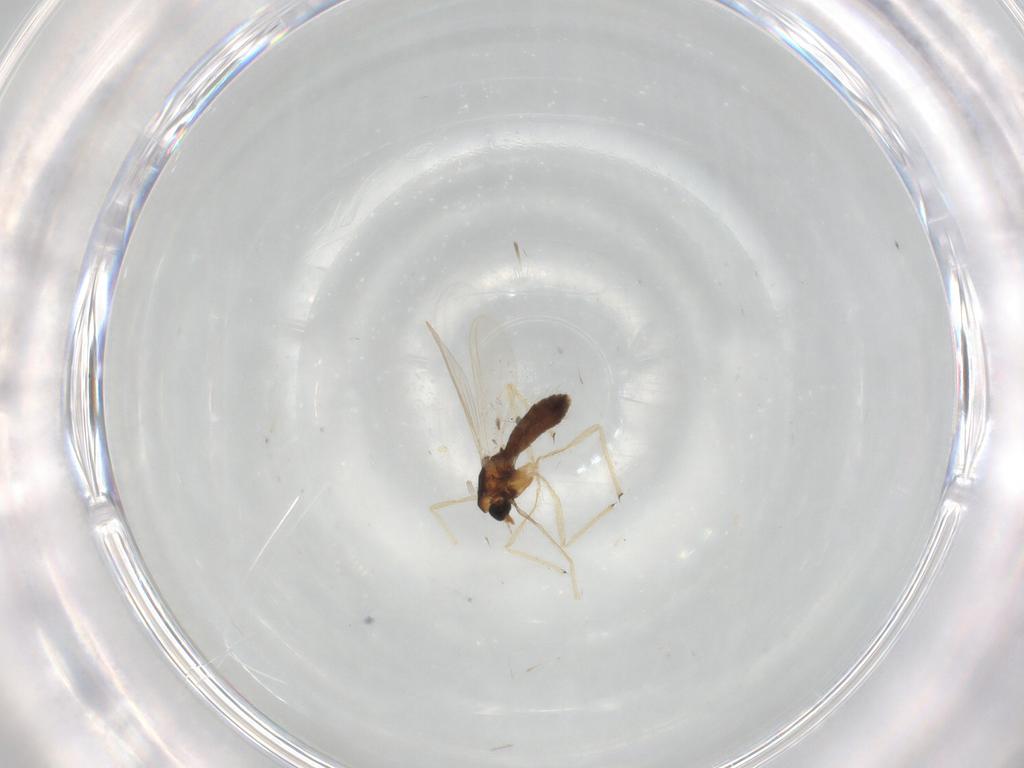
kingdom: Animalia
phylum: Arthropoda
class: Insecta
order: Diptera
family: Chironomidae
